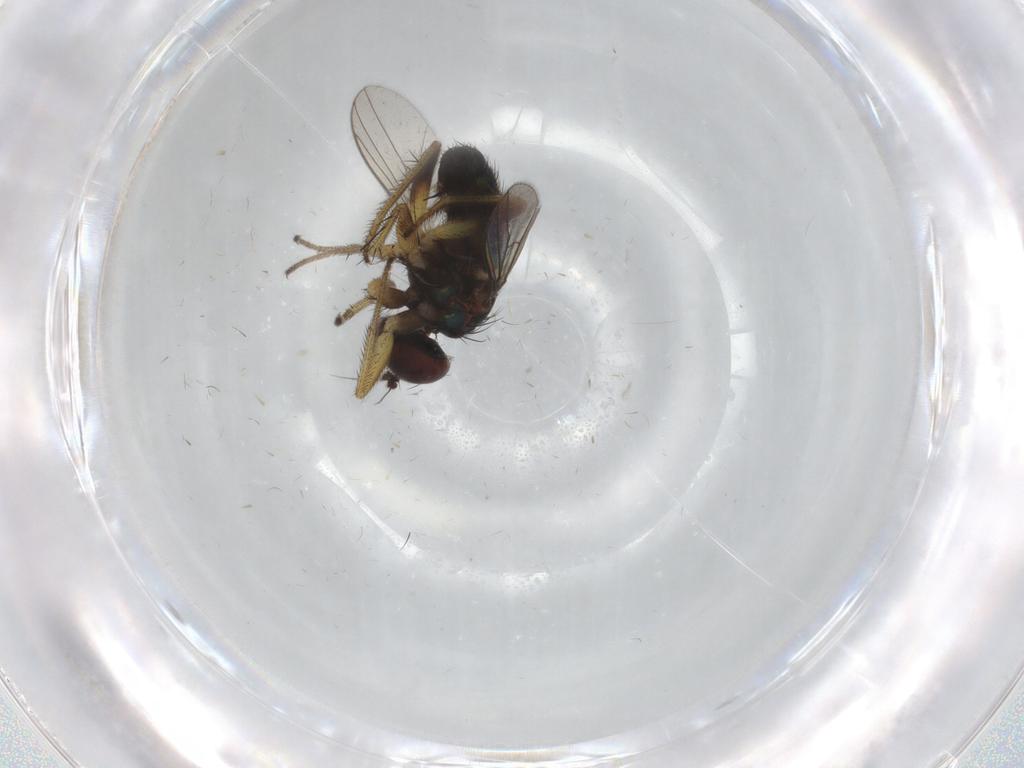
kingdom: Animalia
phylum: Arthropoda
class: Insecta
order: Diptera
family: Dolichopodidae
